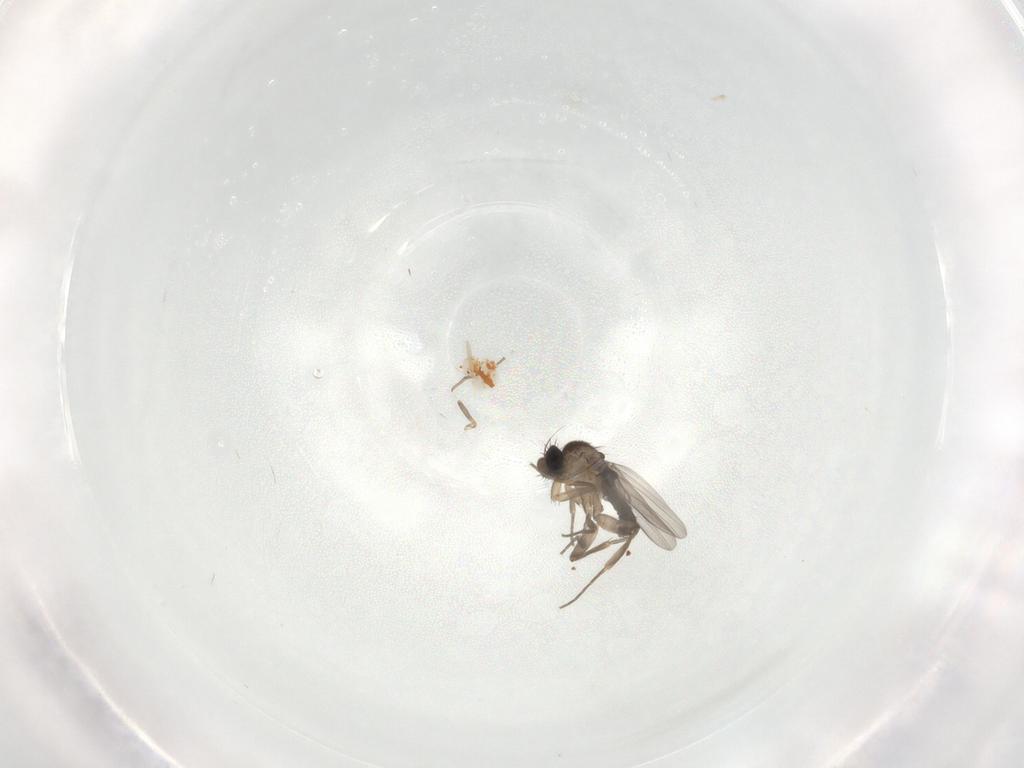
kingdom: Animalia
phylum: Arthropoda
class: Insecta
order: Diptera
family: Chironomidae
